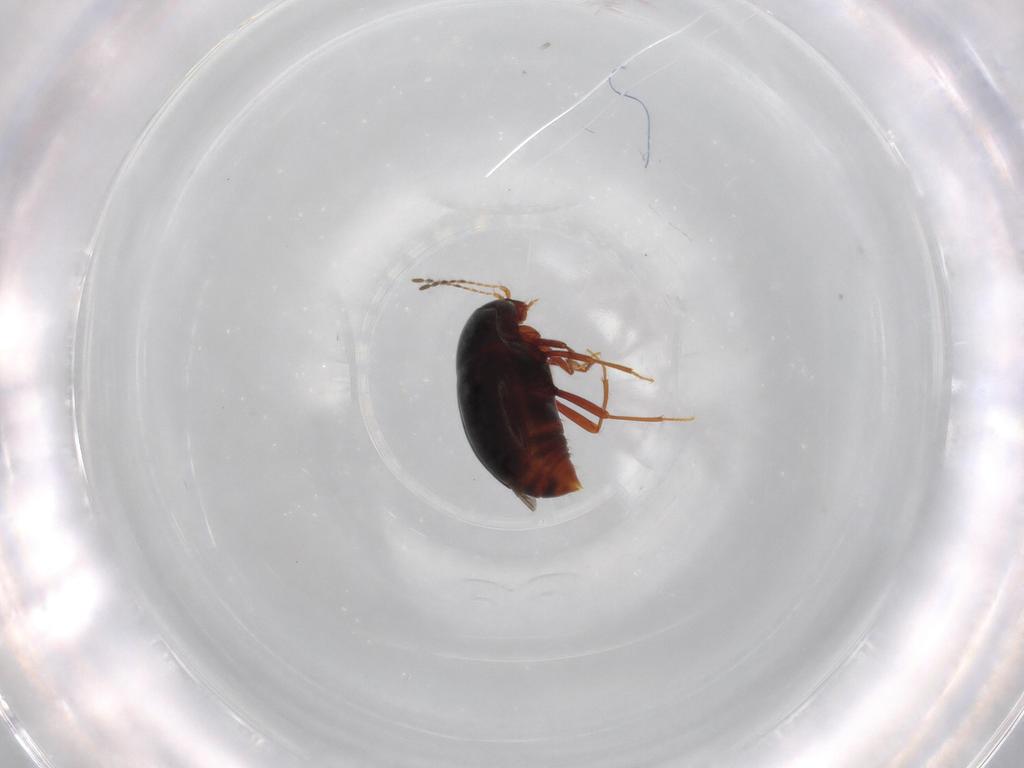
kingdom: Animalia
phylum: Arthropoda
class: Insecta
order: Coleoptera
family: Staphylinidae
